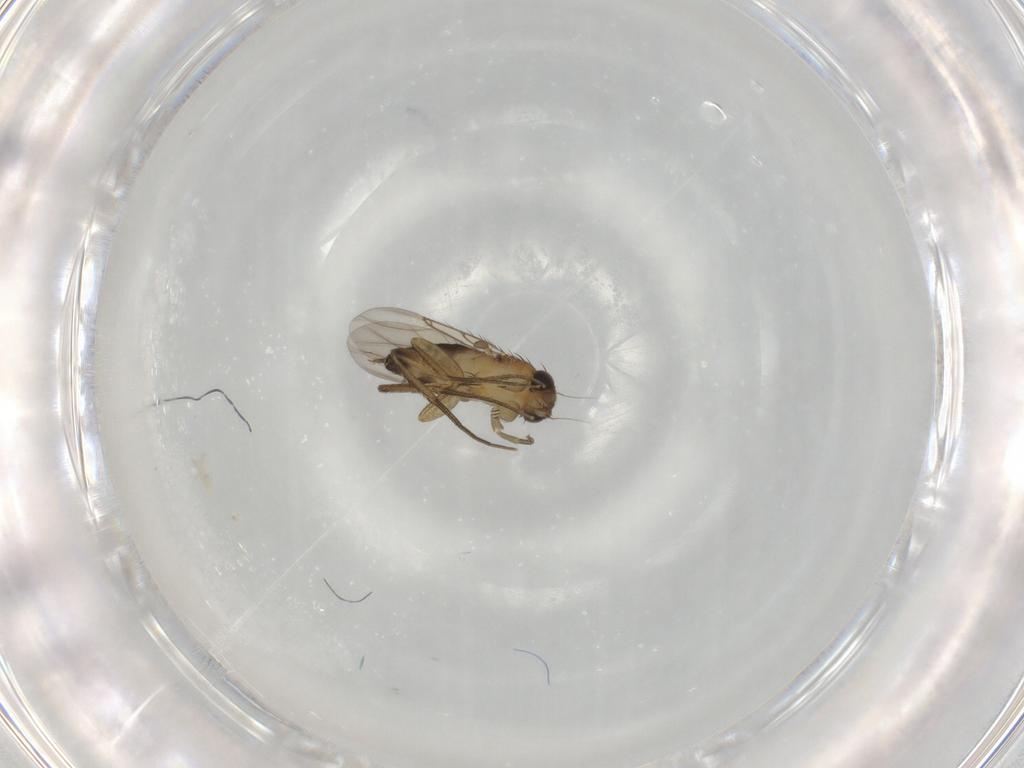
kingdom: Animalia
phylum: Arthropoda
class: Insecta
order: Diptera
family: Phoridae
